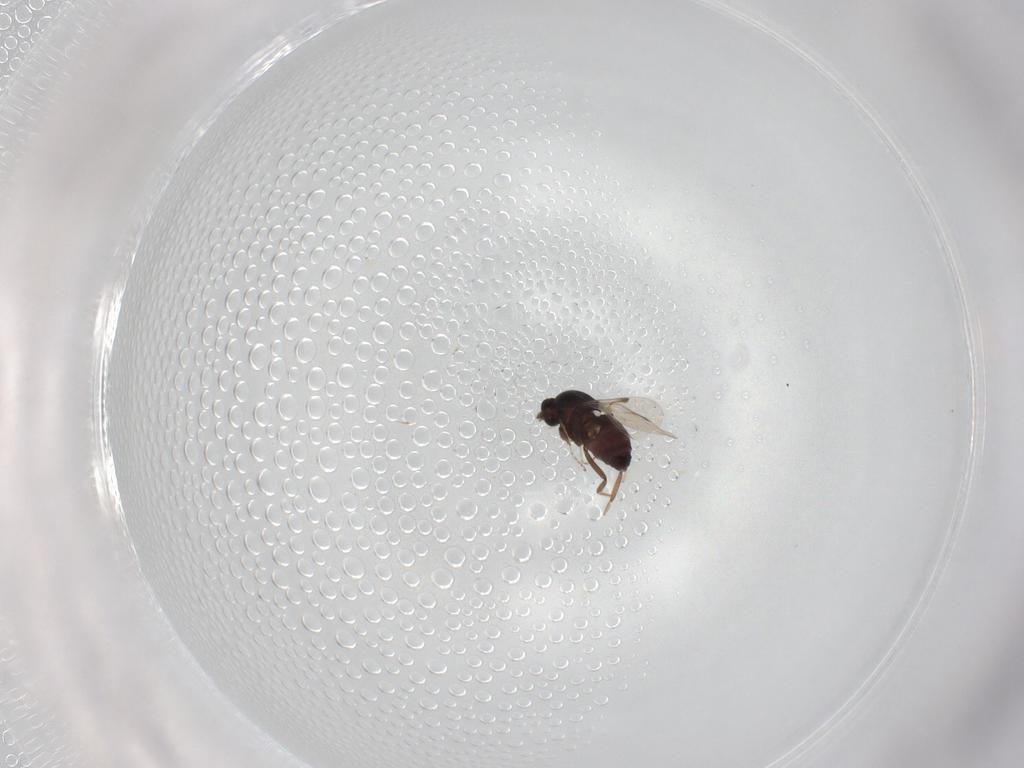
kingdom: Animalia
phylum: Arthropoda
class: Insecta
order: Diptera
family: Ceratopogonidae
